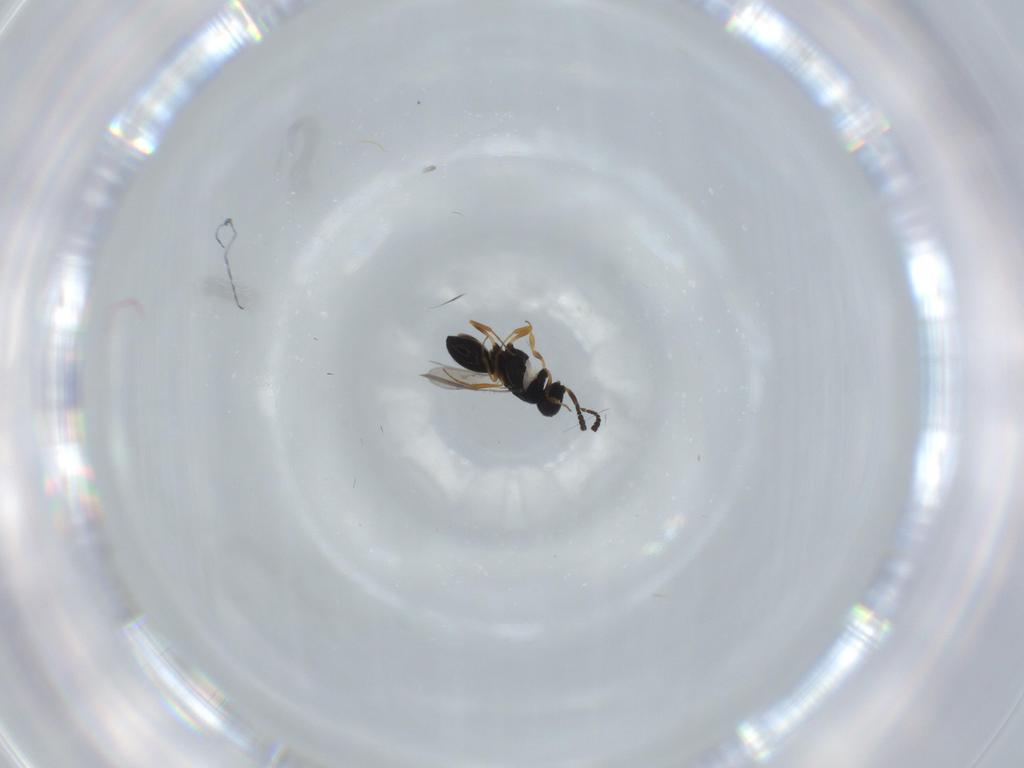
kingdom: Animalia
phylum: Arthropoda
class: Insecta
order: Hymenoptera
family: Scelionidae
